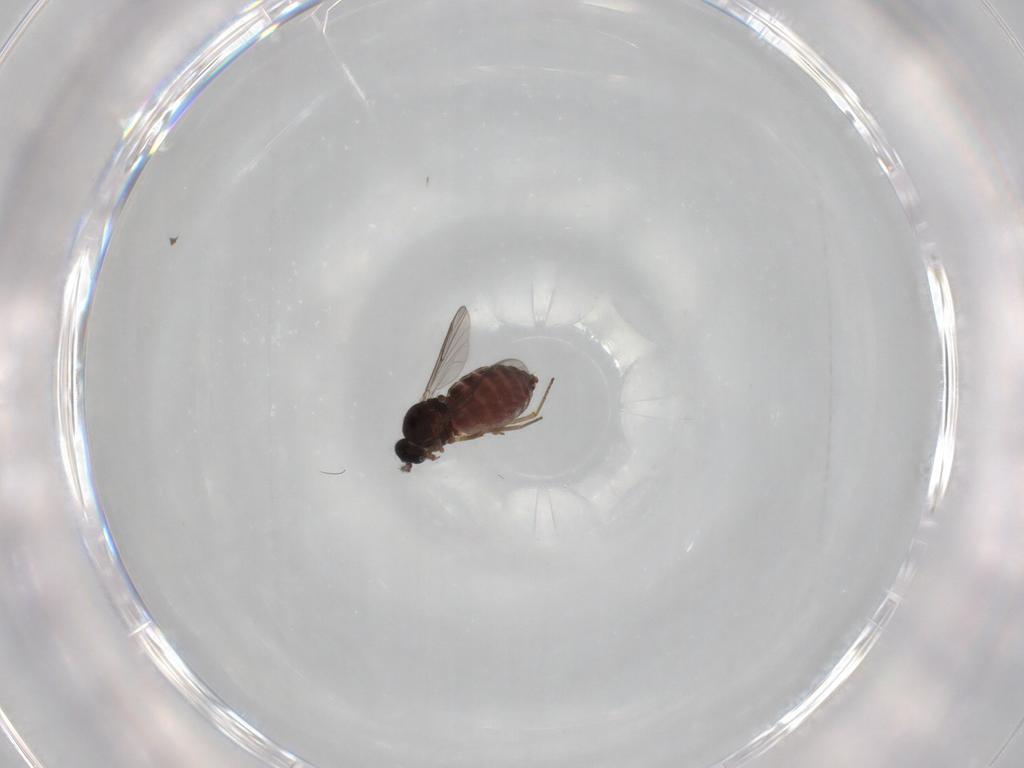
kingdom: Animalia
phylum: Arthropoda
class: Insecta
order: Diptera
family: Ceratopogonidae
